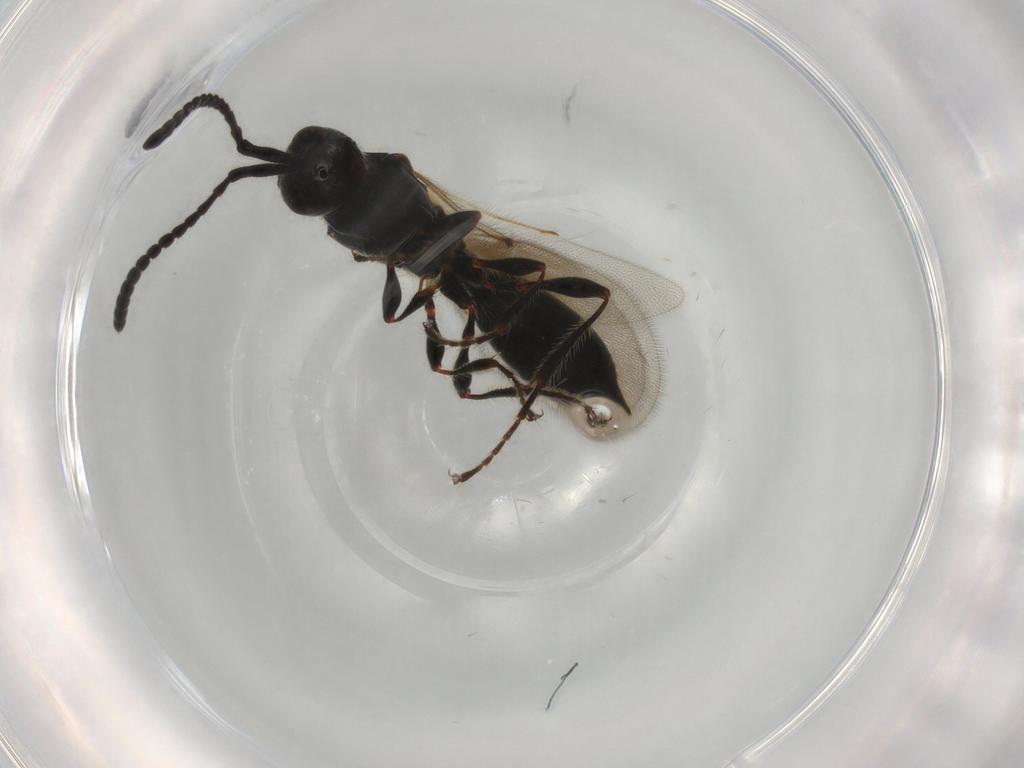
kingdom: Animalia
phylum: Arthropoda
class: Insecta
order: Hymenoptera
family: Diapriidae
